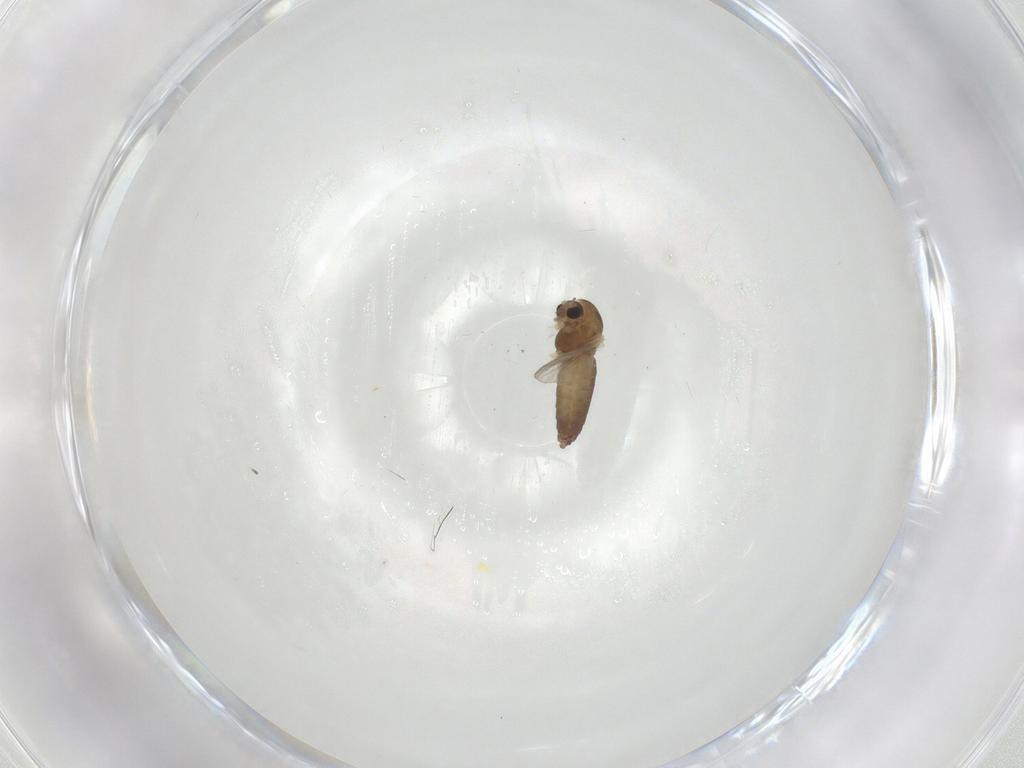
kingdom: Animalia
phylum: Arthropoda
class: Insecta
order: Diptera
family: Chironomidae
